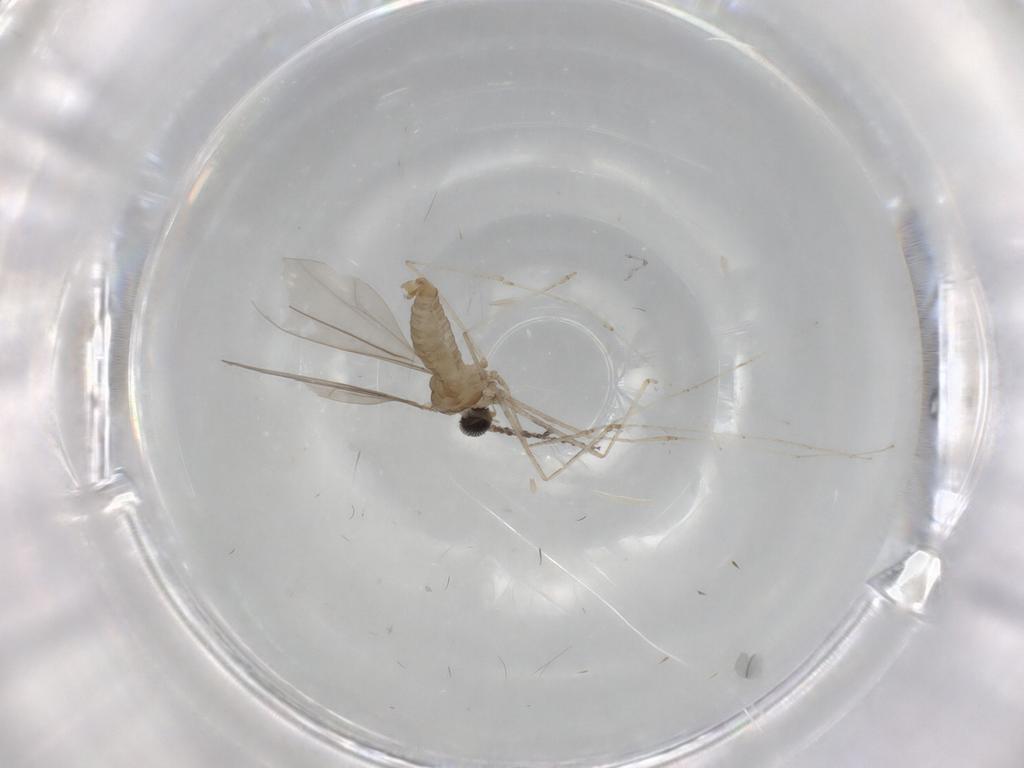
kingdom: Animalia
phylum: Arthropoda
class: Insecta
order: Diptera
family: Cecidomyiidae
